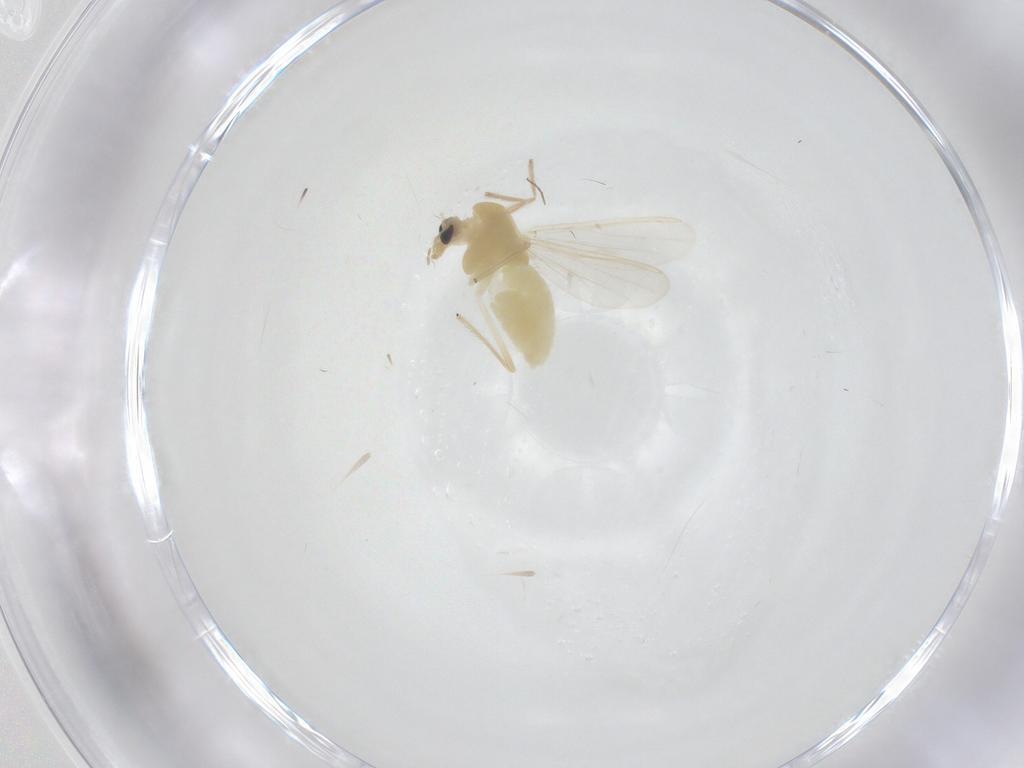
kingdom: Animalia
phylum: Arthropoda
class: Insecta
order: Diptera
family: Chironomidae
